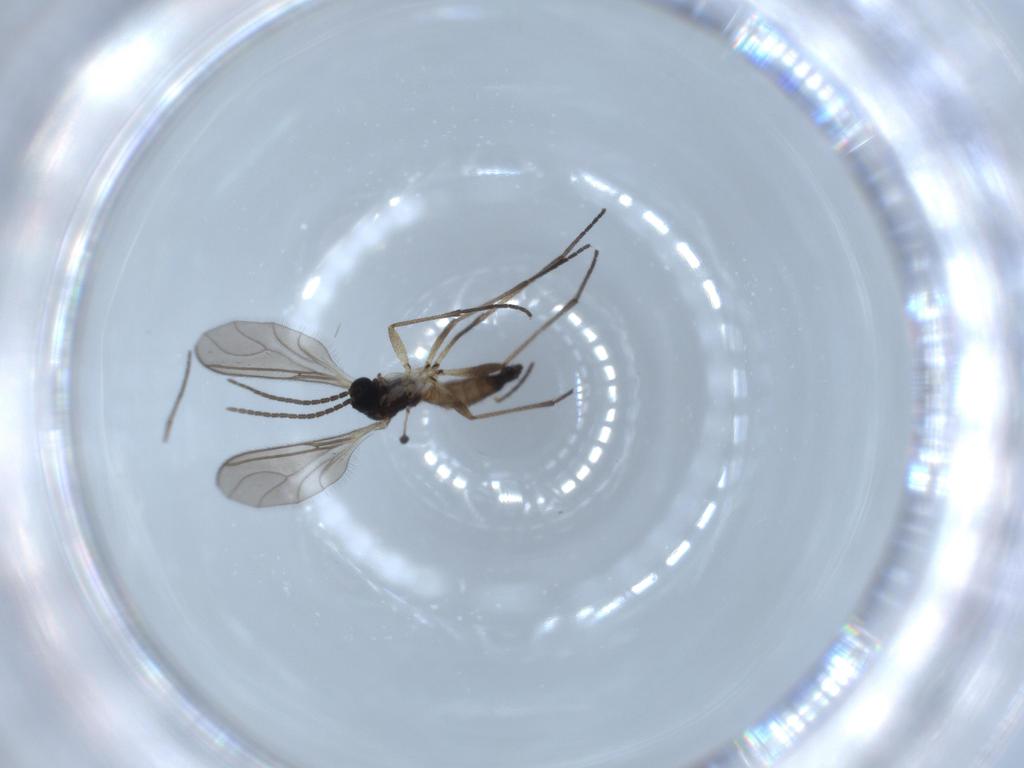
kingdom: Animalia
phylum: Arthropoda
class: Insecta
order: Diptera
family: Sciaridae
